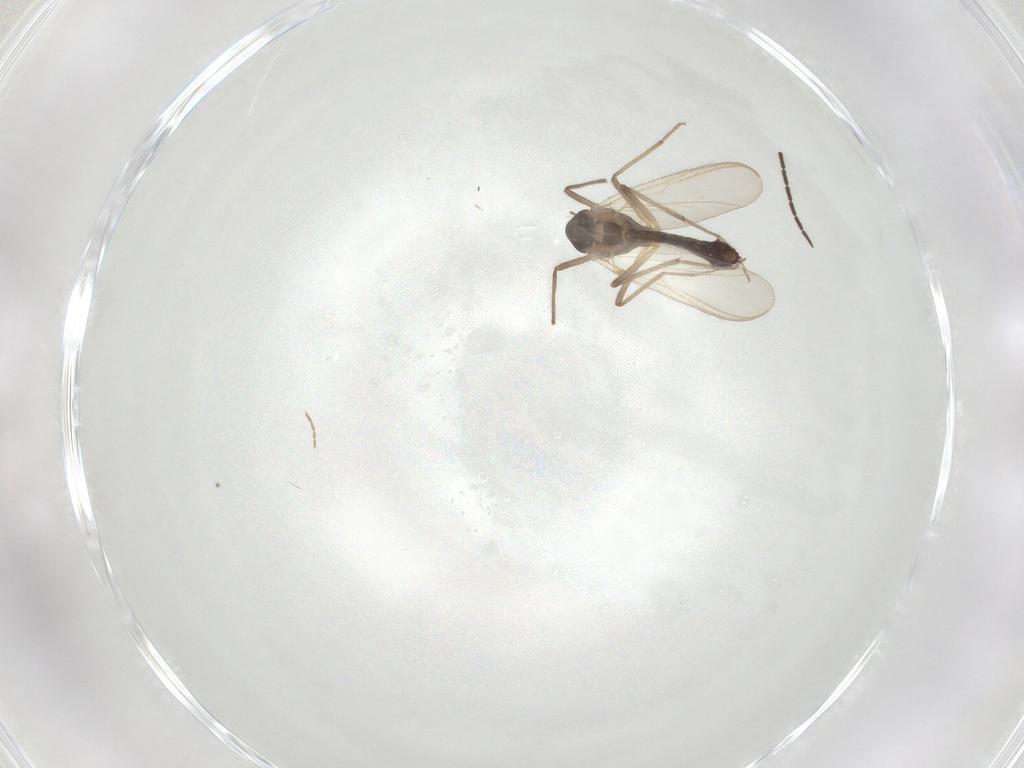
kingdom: Animalia
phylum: Arthropoda
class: Insecta
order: Diptera
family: Chironomidae
